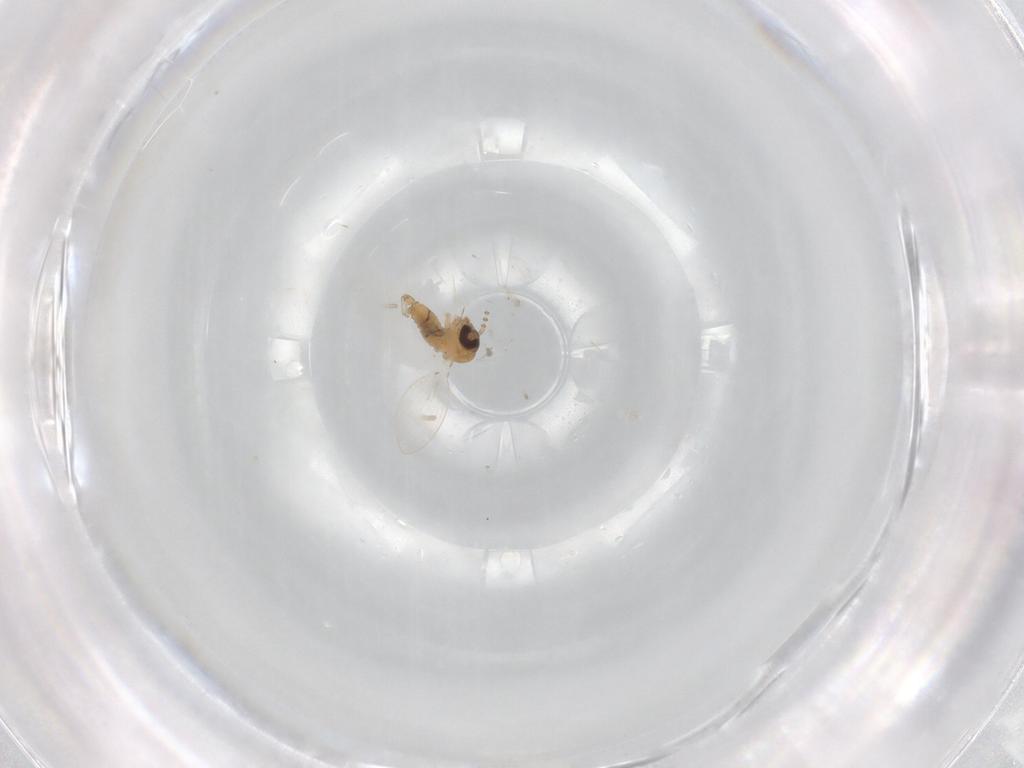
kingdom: Animalia
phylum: Arthropoda
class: Insecta
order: Diptera
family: Psychodidae
